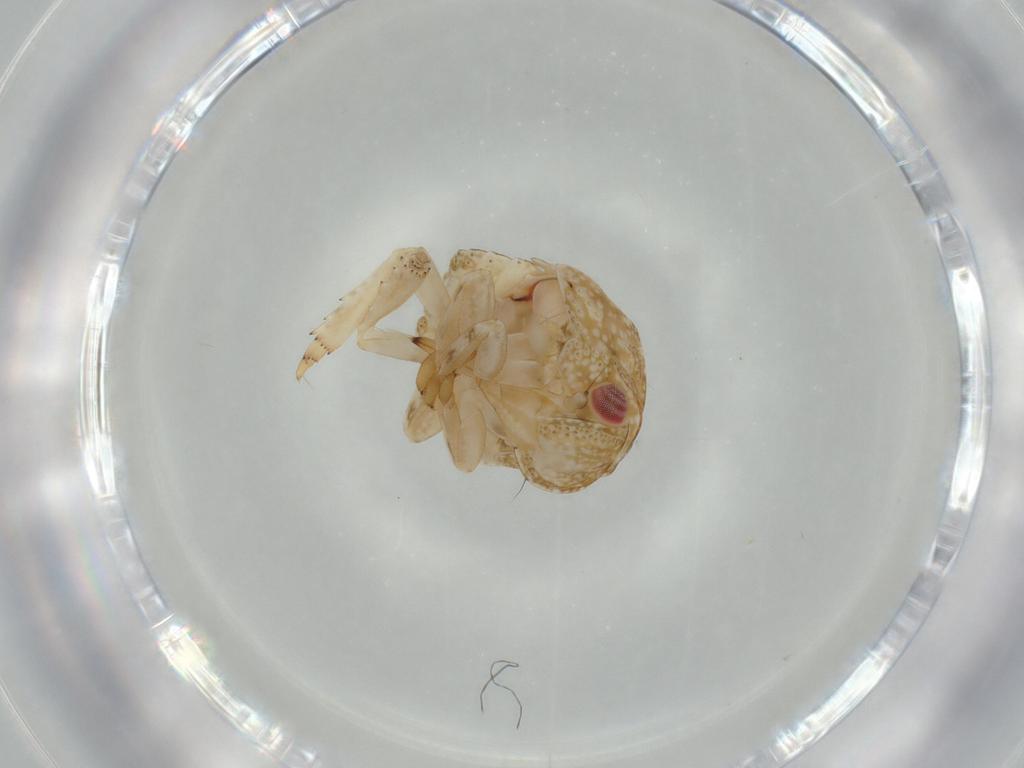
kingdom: Animalia
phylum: Arthropoda
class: Insecta
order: Hemiptera
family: Acanaloniidae
